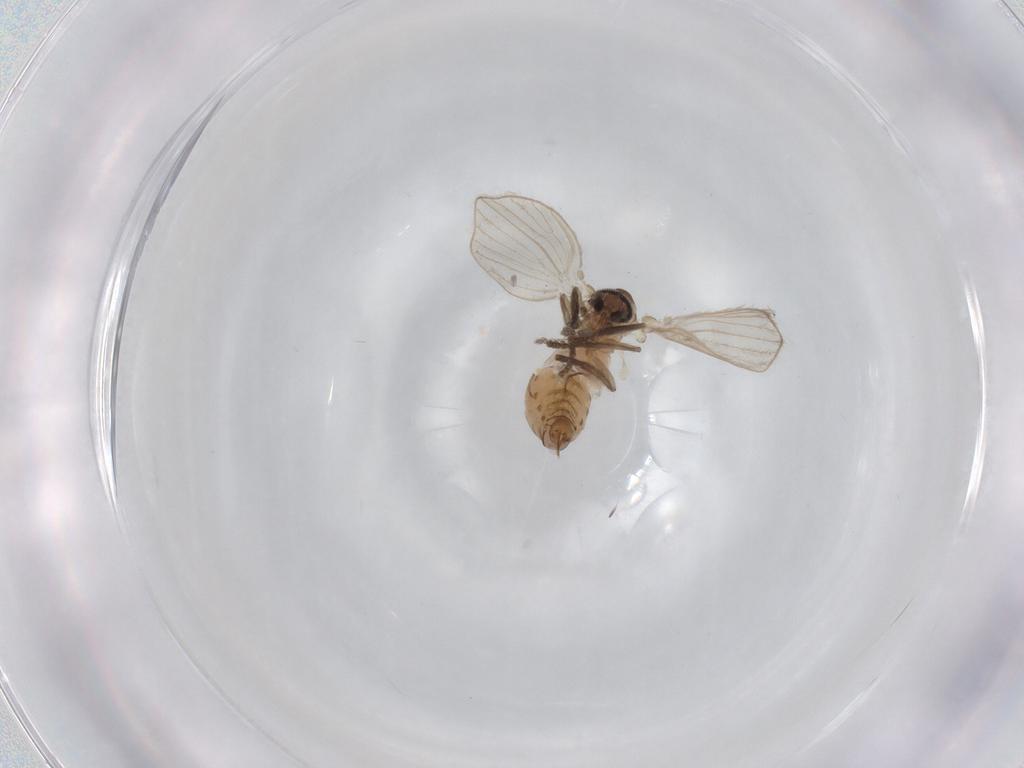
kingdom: Animalia
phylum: Arthropoda
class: Insecta
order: Diptera
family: Psychodidae
